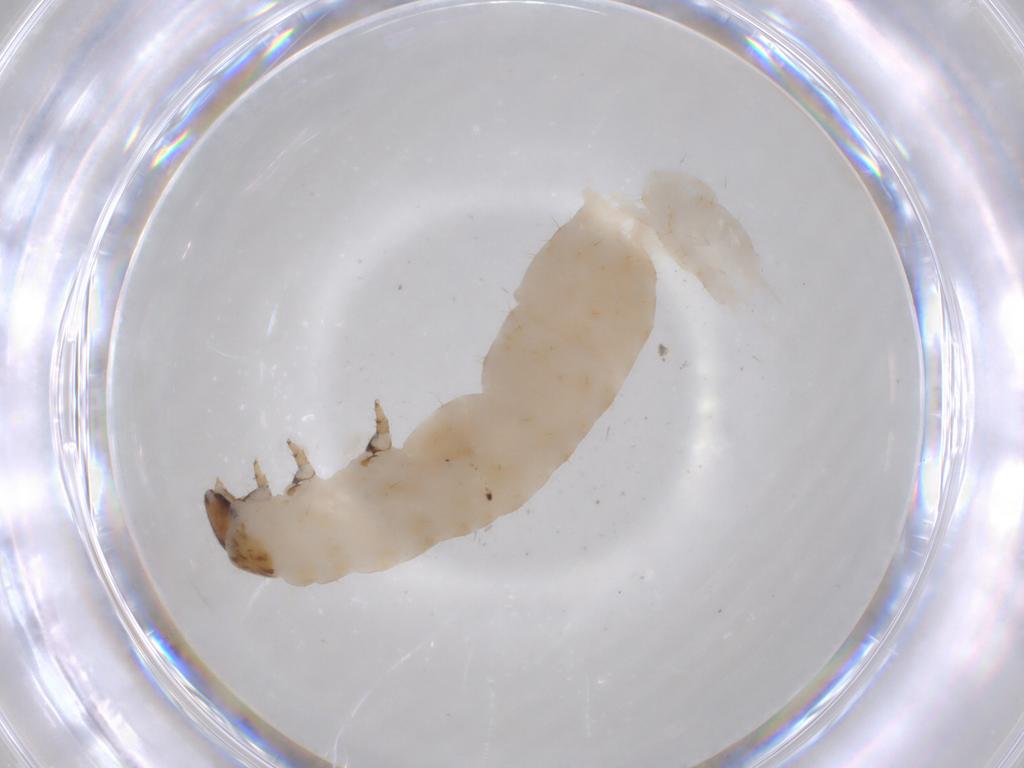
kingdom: Animalia
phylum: Arthropoda
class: Insecta
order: Coleoptera
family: Chrysomelidae
